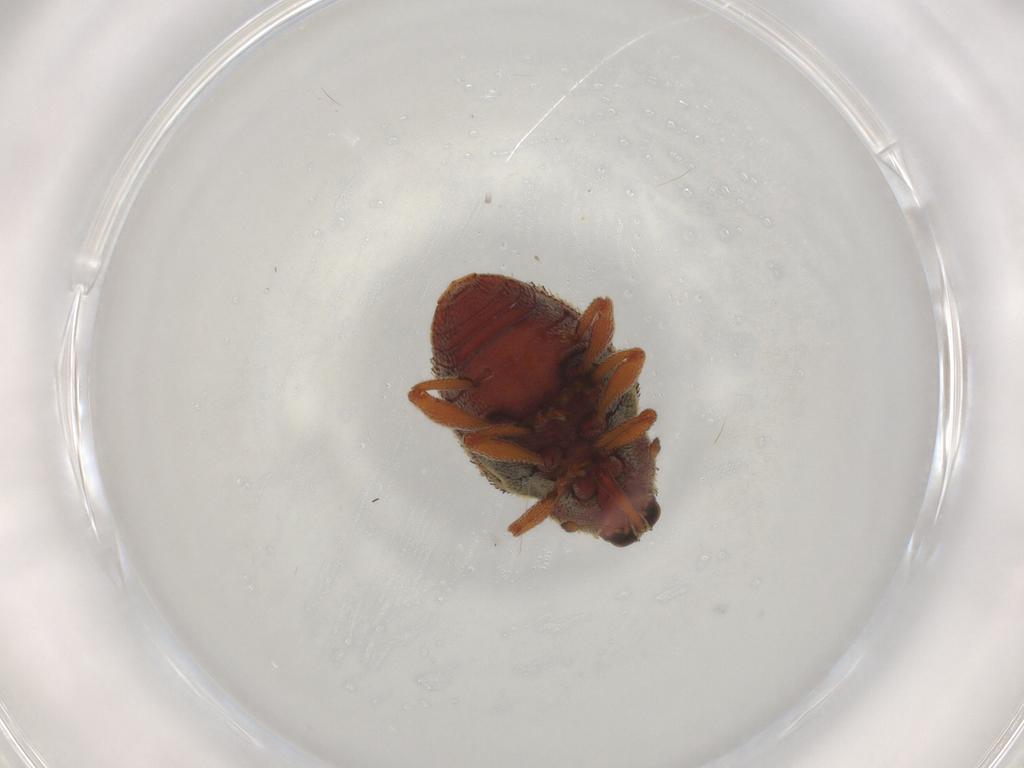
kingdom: Animalia
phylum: Arthropoda
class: Insecta
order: Coleoptera
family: Curculionidae
